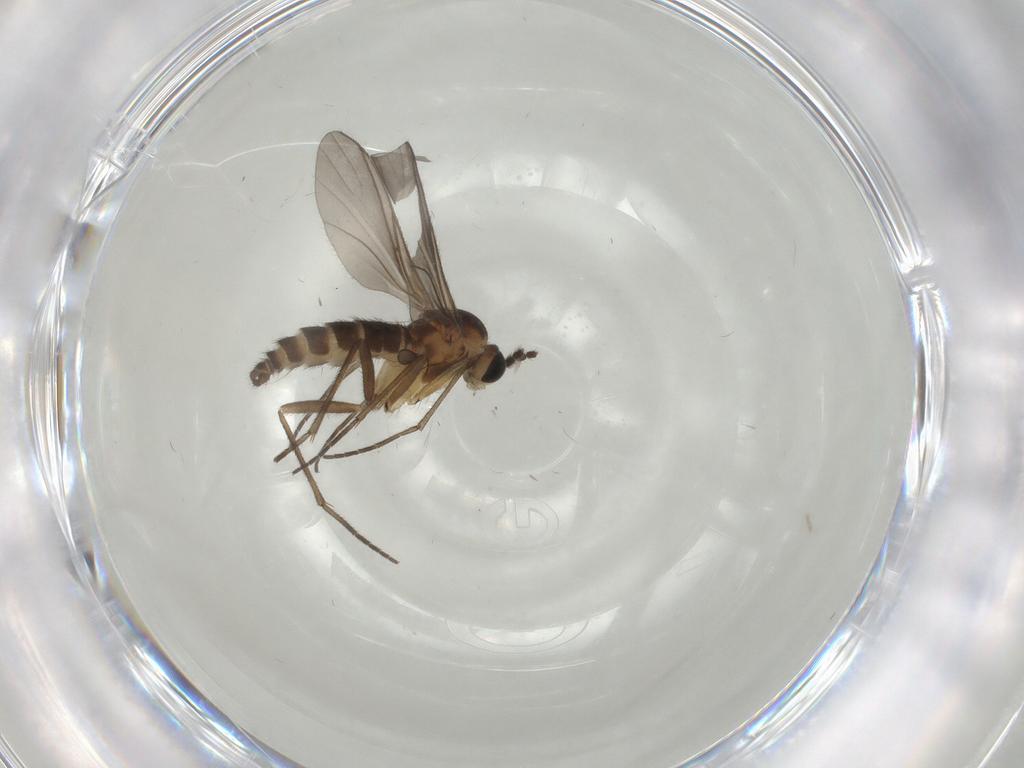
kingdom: Animalia
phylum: Arthropoda
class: Insecta
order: Diptera
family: Sciaridae
